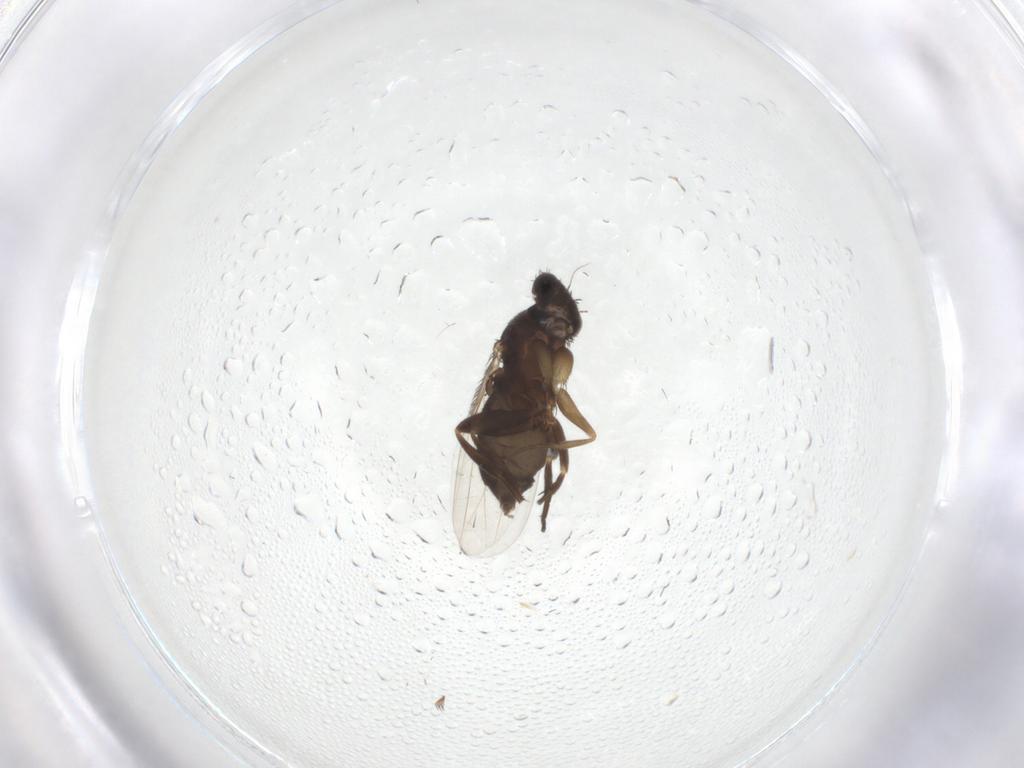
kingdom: Animalia
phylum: Arthropoda
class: Insecta
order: Diptera
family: Phoridae
